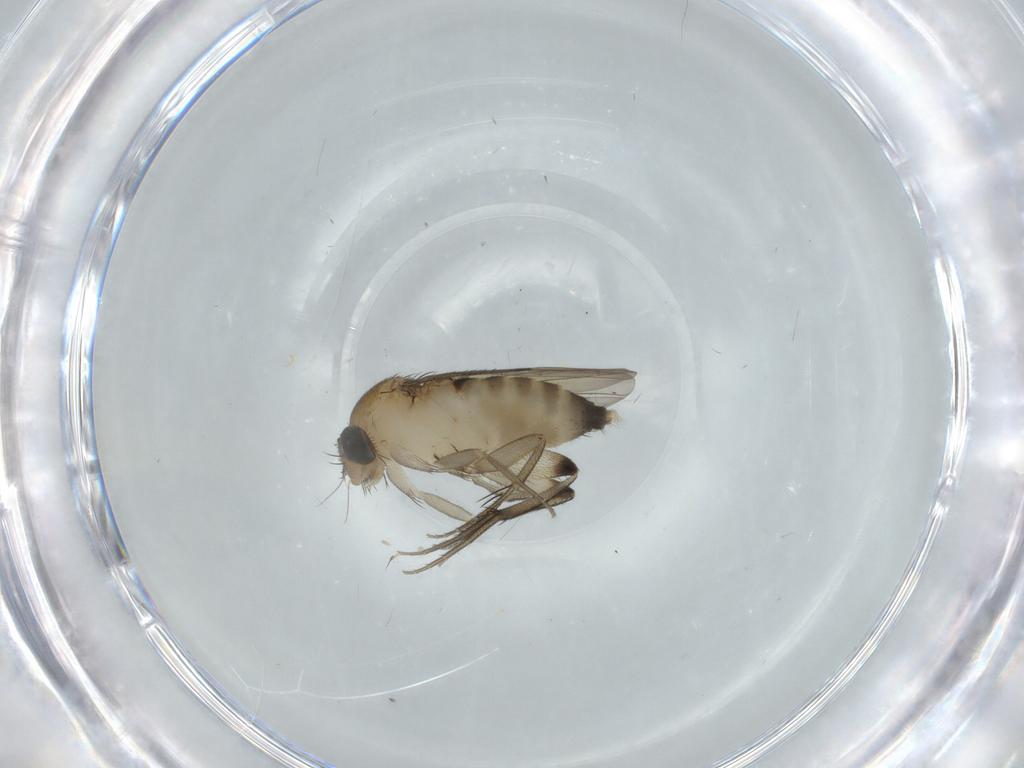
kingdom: Animalia
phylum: Arthropoda
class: Insecta
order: Diptera
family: Phoridae
